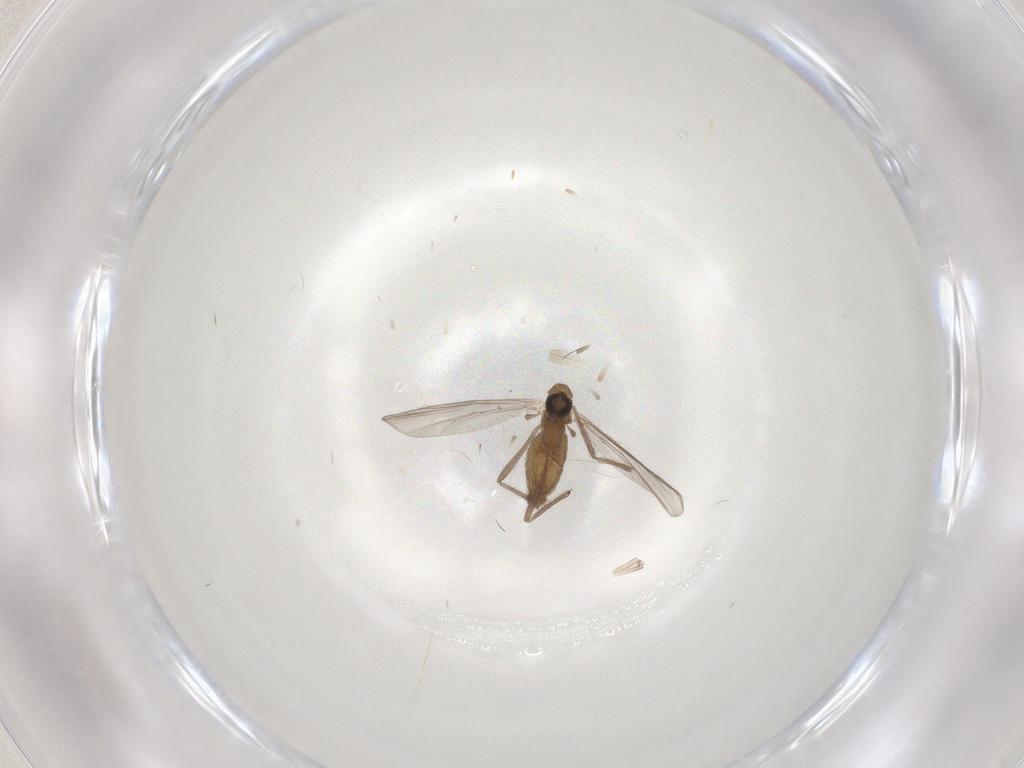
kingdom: Animalia
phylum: Arthropoda
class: Insecta
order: Diptera
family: Chironomidae
